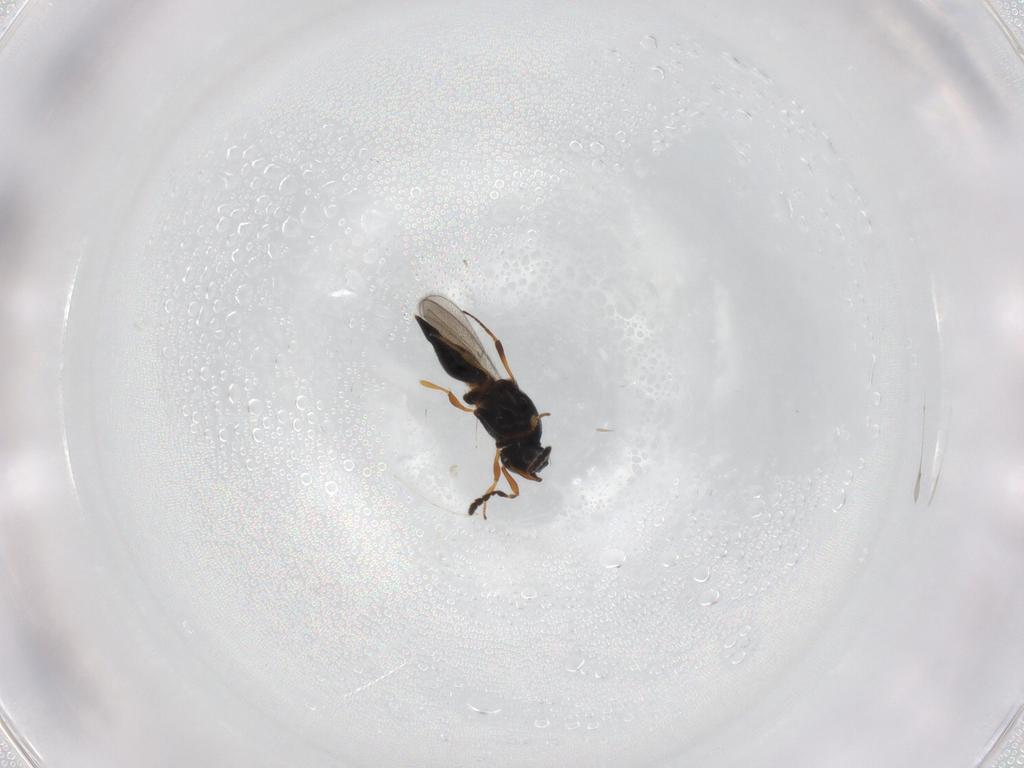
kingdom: Animalia
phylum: Arthropoda
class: Insecta
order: Hymenoptera
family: Platygastridae
